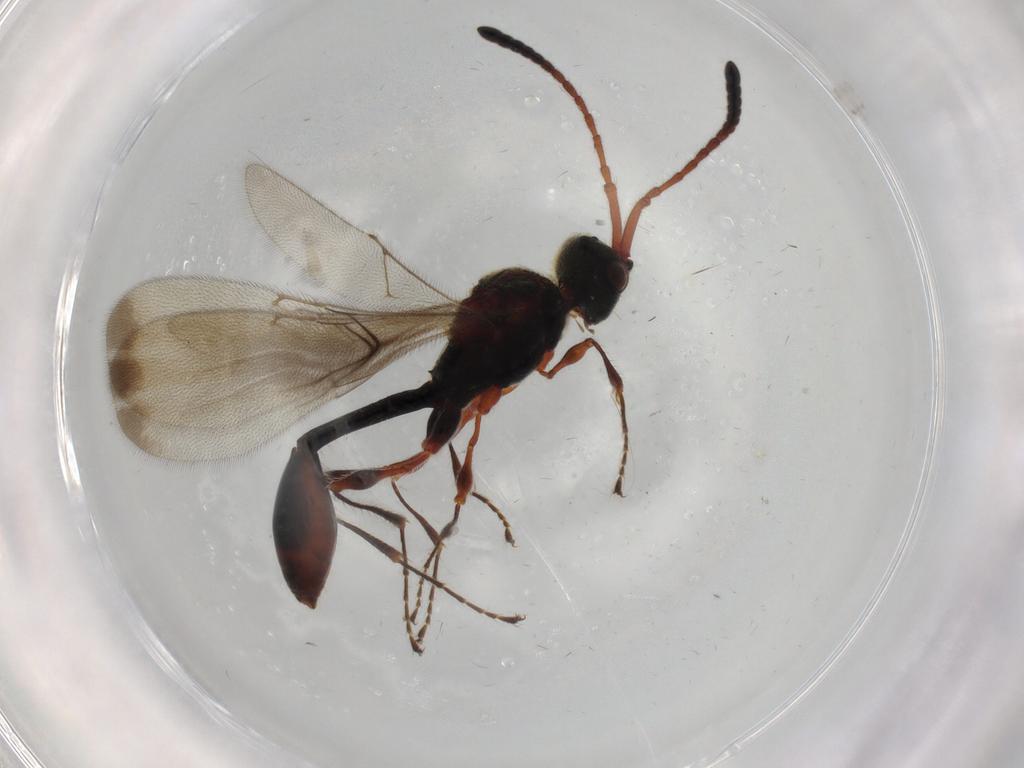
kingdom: Animalia
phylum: Arthropoda
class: Insecta
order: Hymenoptera
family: Diapriidae
